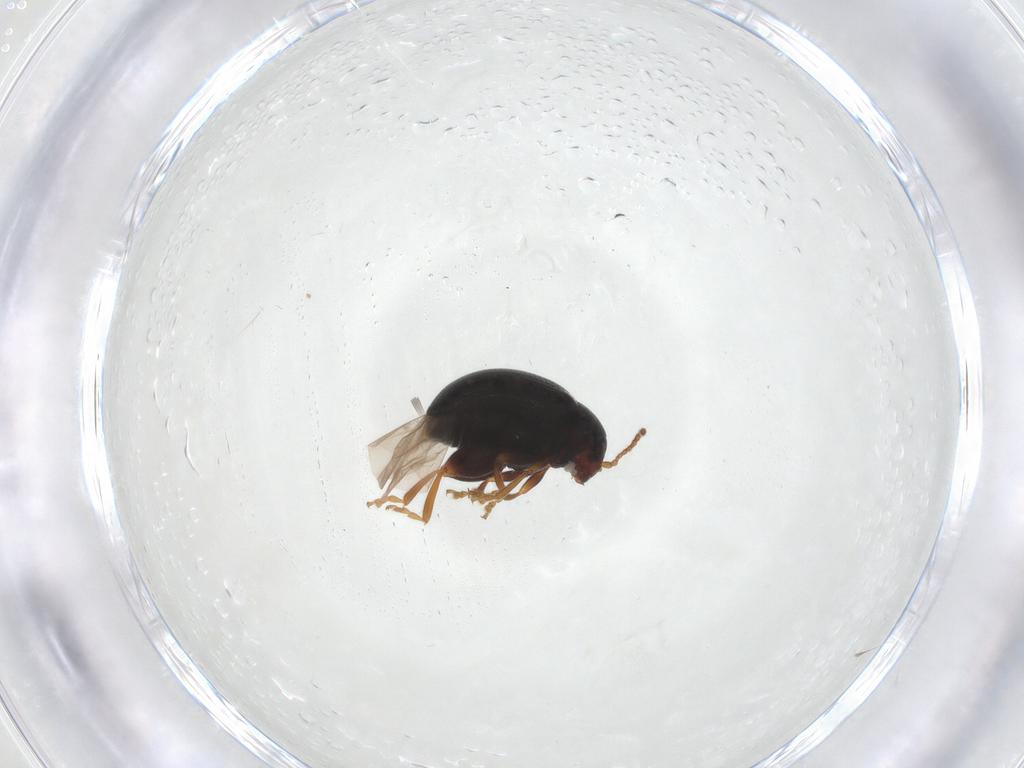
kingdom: Animalia
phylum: Arthropoda
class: Insecta
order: Coleoptera
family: Chrysomelidae
